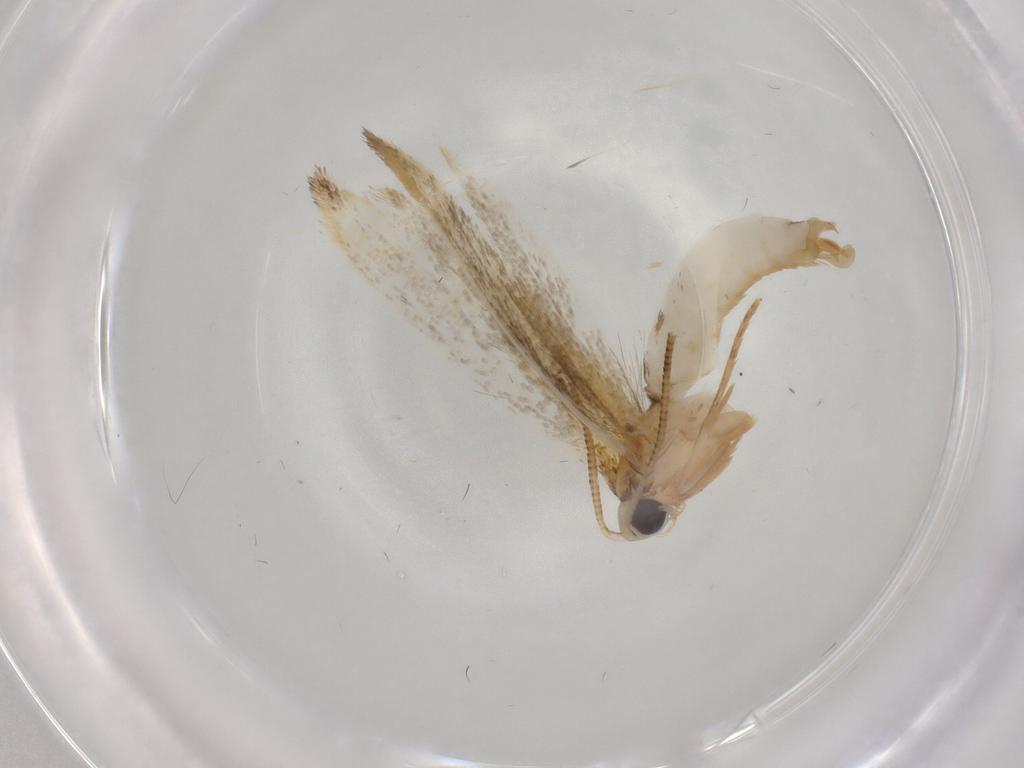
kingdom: Animalia
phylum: Arthropoda
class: Insecta
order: Lepidoptera
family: Tineidae
